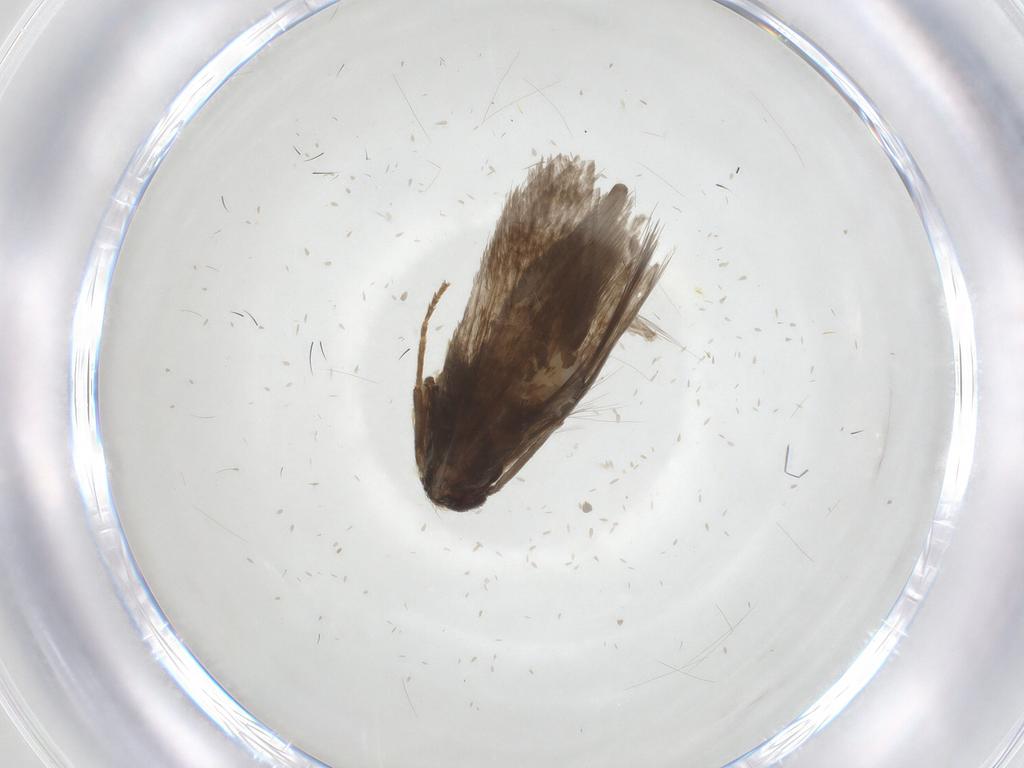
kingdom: Animalia
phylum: Arthropoda
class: Insecta
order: Lepidoptera
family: Micropterigidae
